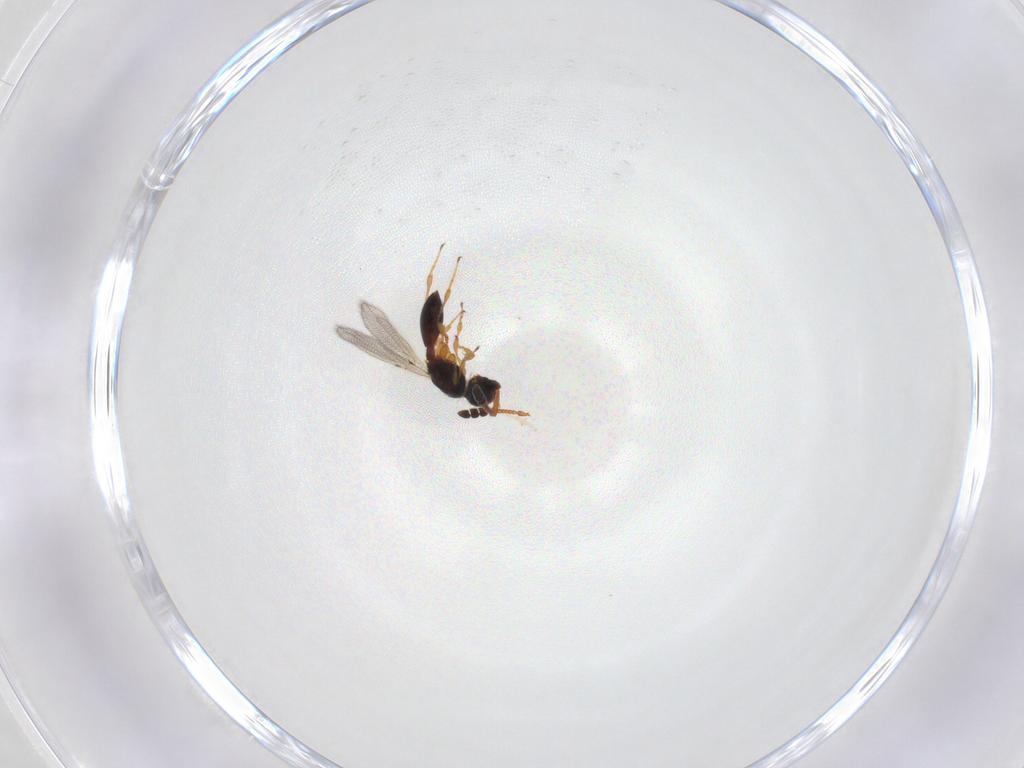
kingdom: Animalia
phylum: Arthropoda
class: Insecta
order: Hymenoptera
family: Diapriidae
